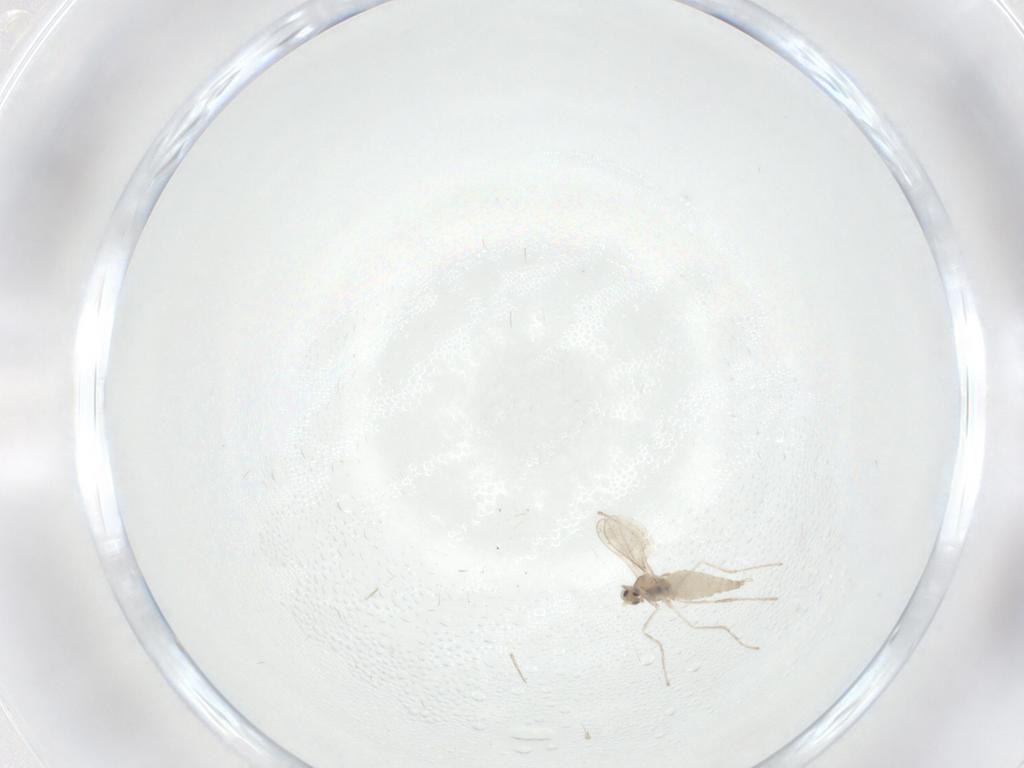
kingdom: Animalia
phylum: Arthropoda
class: Insecta
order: Diptera
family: Cecidomyiidae
